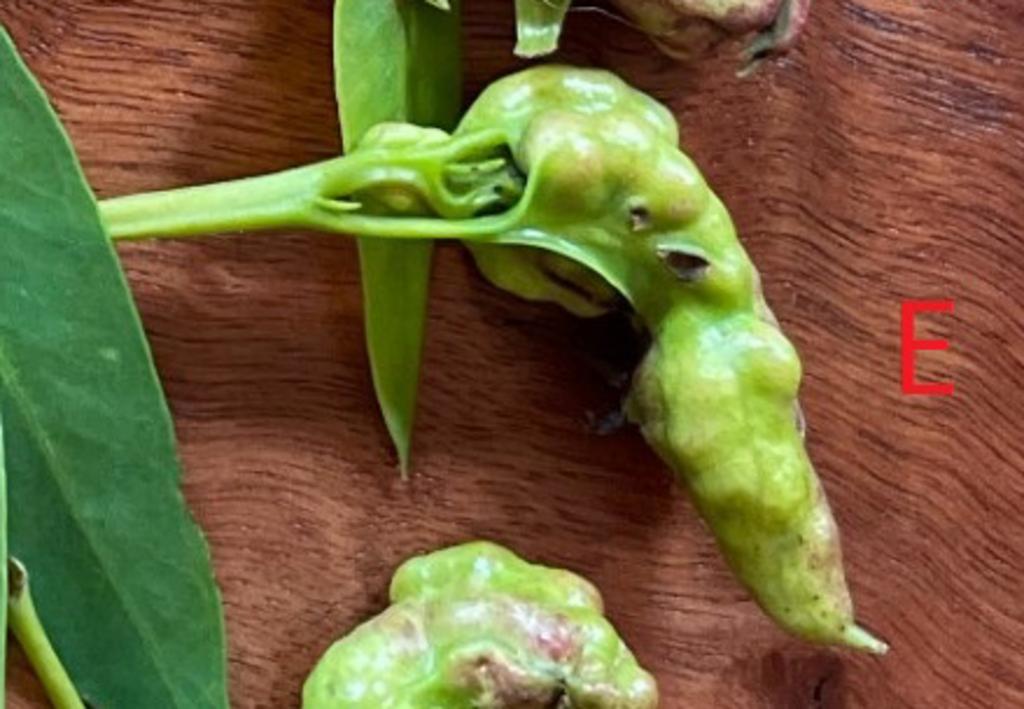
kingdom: Animalia
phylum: Arthropoda
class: Insecta
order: Hemiptera
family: Aphalaridae
